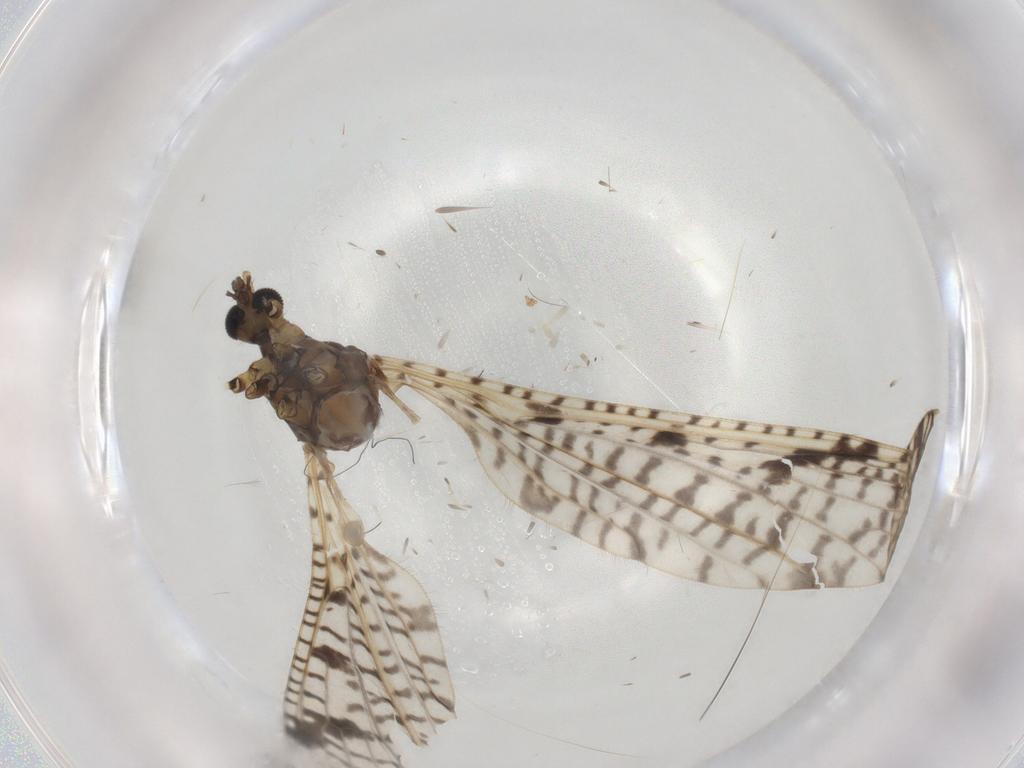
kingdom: Animalia
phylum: Arthropoda
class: Insecta
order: Diptera
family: Limoniidae
